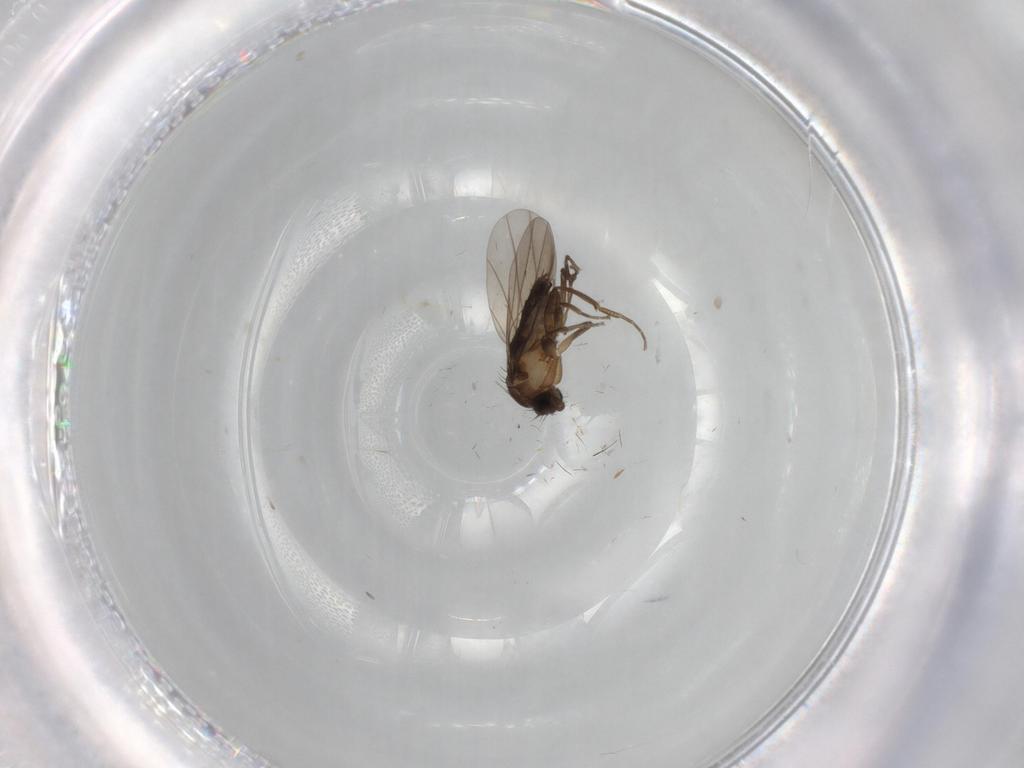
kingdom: Animalia
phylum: Arthropoda
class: Insecta
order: Diptera
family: Phoridae
